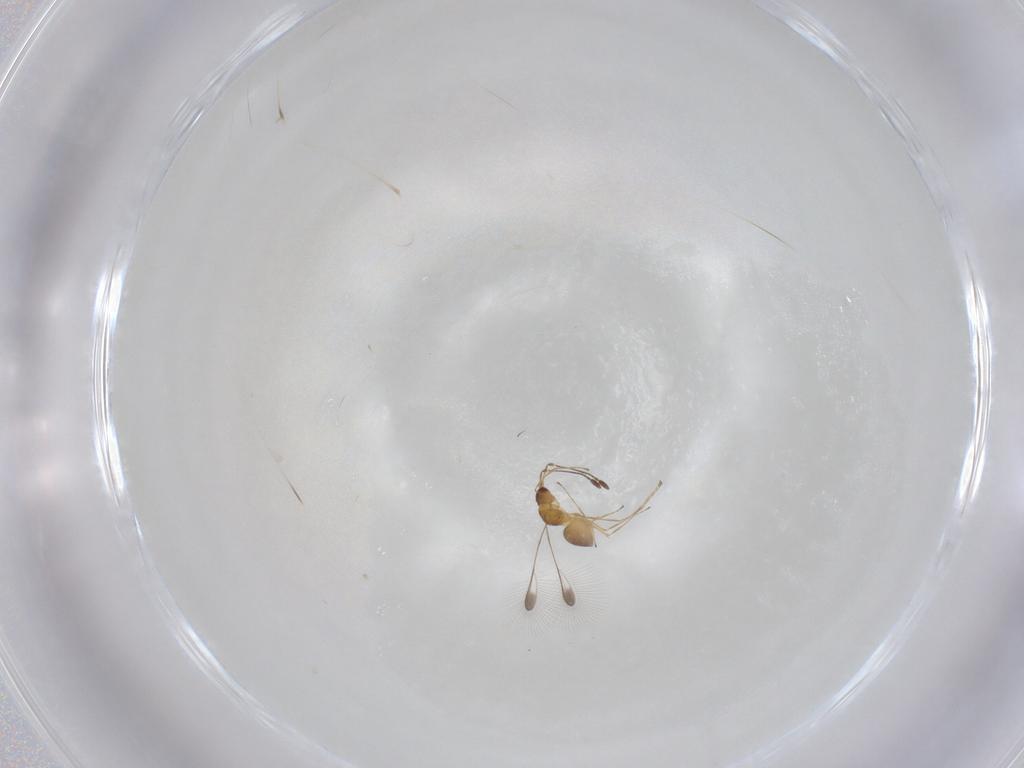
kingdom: Animalia
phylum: Arthropoda
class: Insecta
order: Hymenoptera
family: Mymaridae
